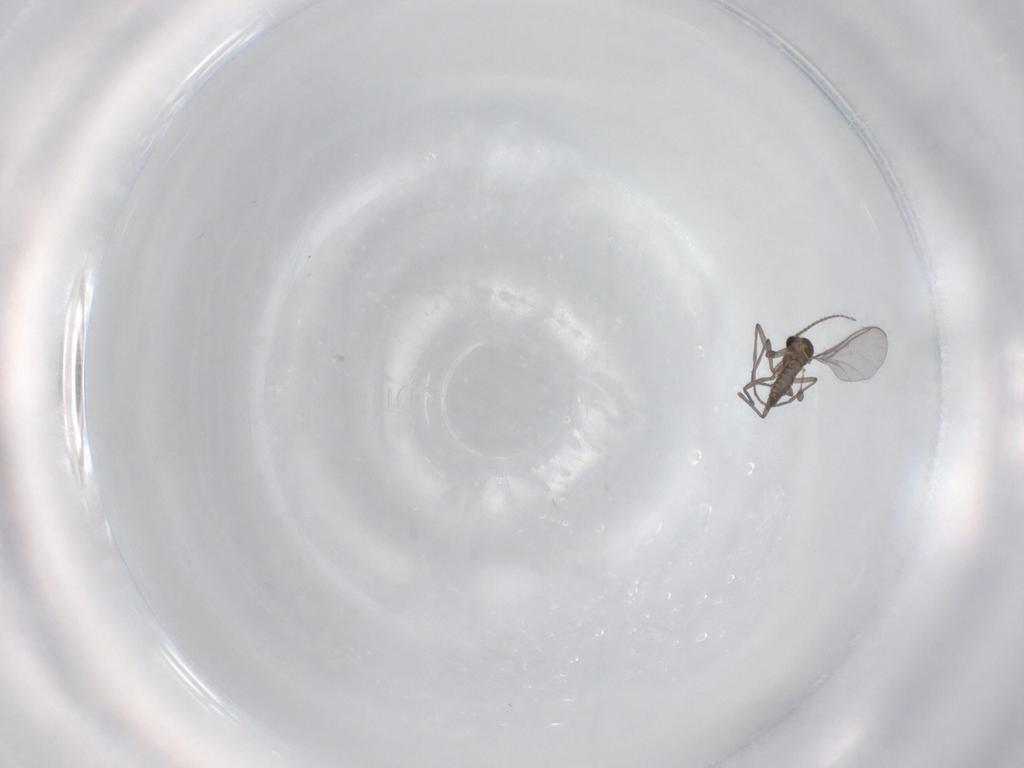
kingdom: Animalia
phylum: Arthropoda
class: Insecta
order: Diptera
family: Sciaridae
